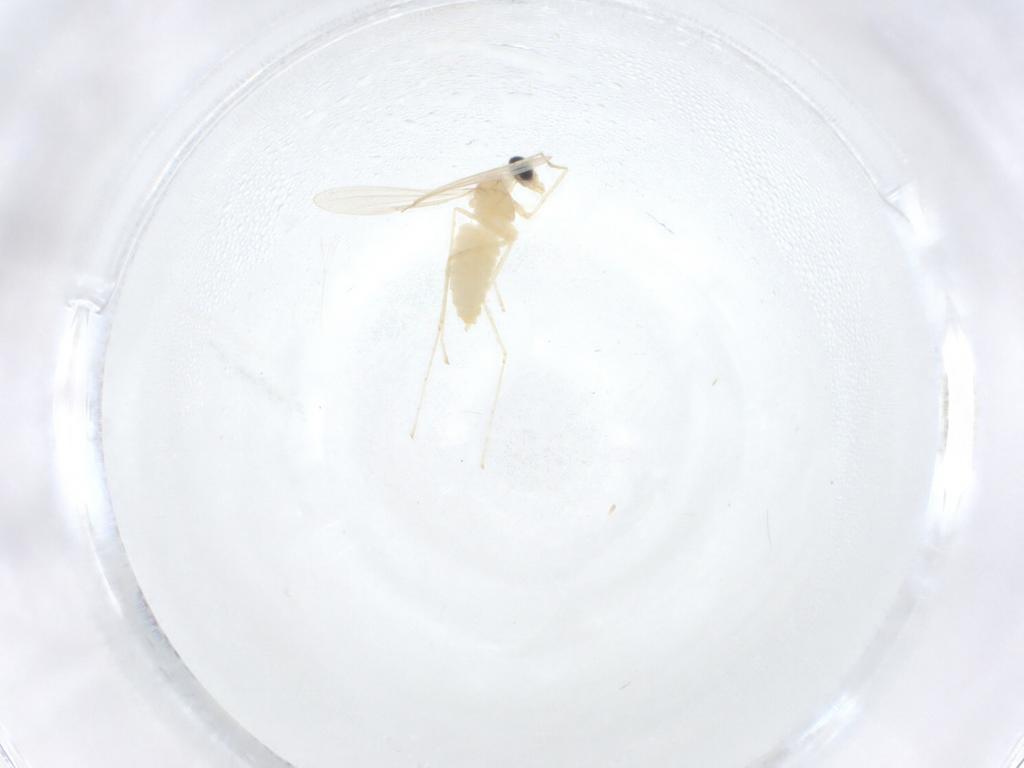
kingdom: Animalia
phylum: Arthropoda
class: Insecta
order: Diptera
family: Cecidomyiidae
